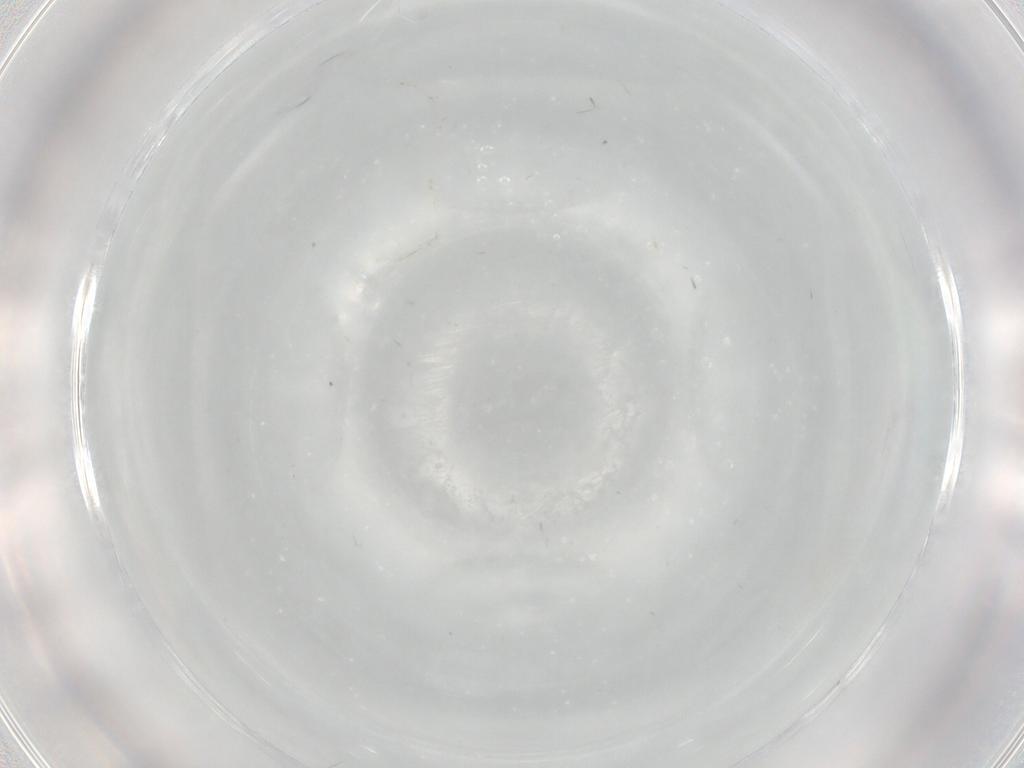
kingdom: Animalia
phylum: Arthropoda
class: Insecta
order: Diptera
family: Cecidomyiidae
